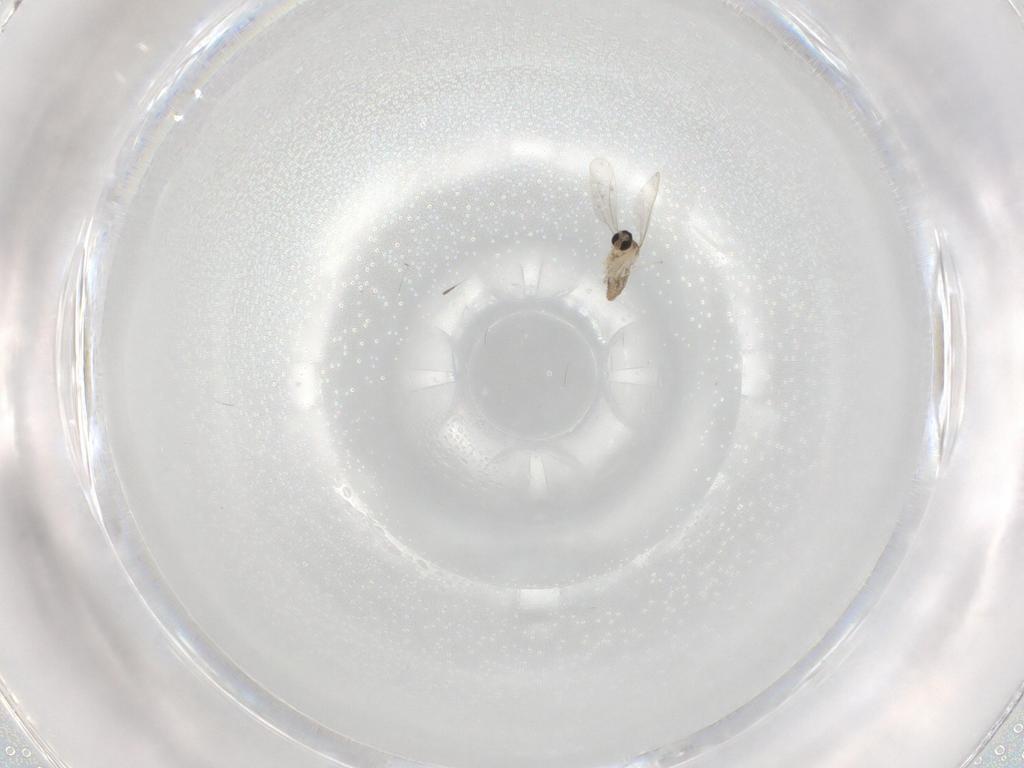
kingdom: Animalia
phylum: Arthropoda
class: Insecta
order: Diptera
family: Cecidomyiidae
